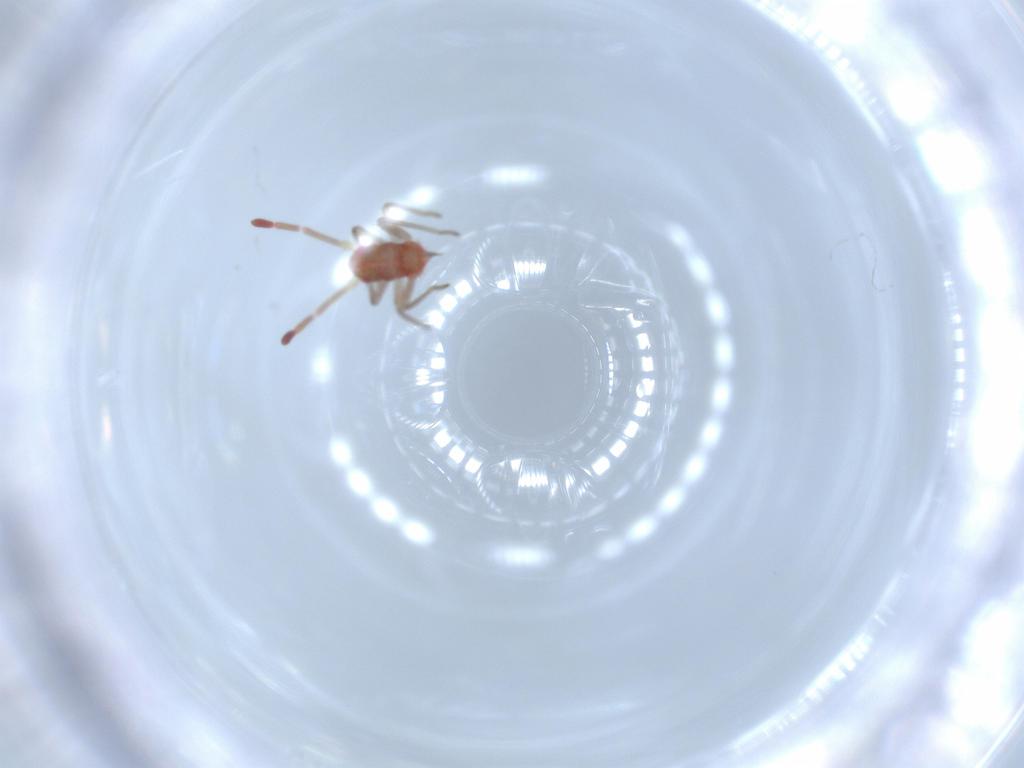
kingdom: Animalia
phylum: Arthropoda
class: Insecta
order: Hemiptera
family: Miridae
